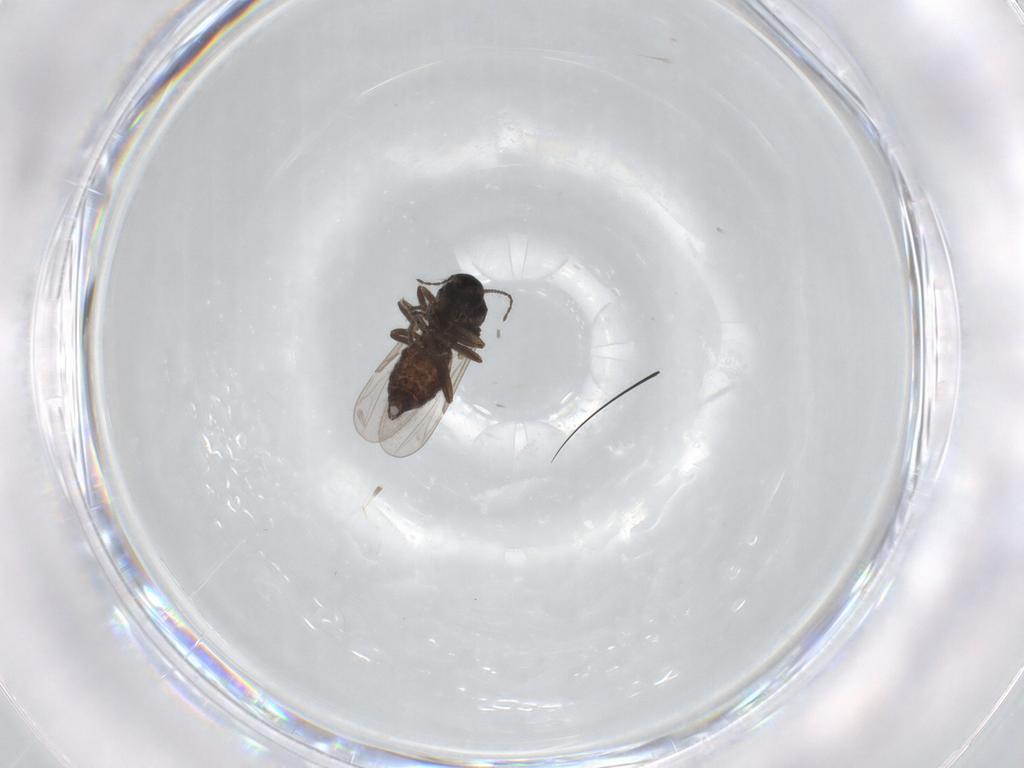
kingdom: Animalia
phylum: Arthropoda
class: Insecta
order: Diptera
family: Ceratopogonidae
